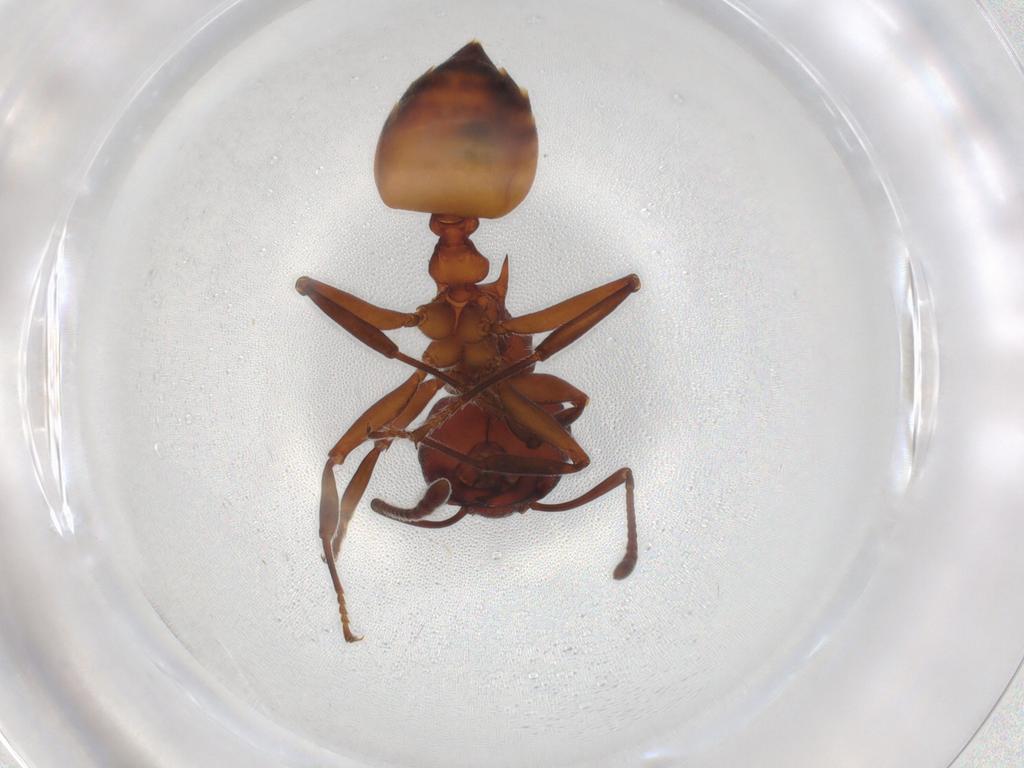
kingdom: Animalia
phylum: Arthropoda
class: Insecta
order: Hymenoptera
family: Formicidae
